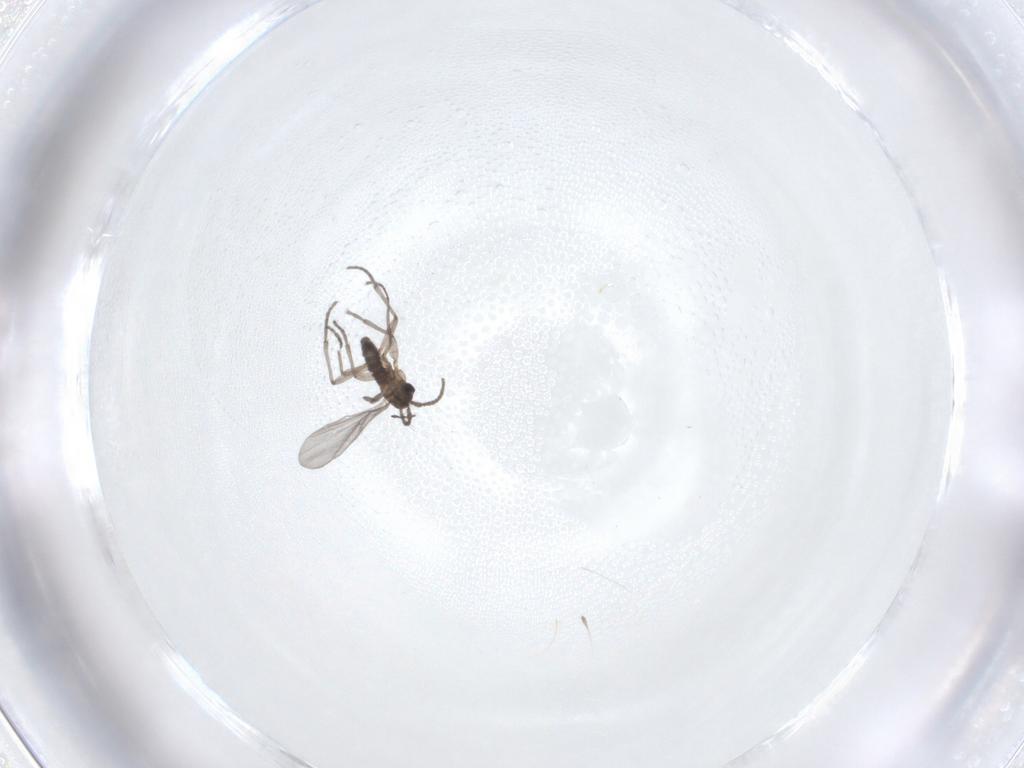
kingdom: Animalia
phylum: Arthropoda
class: Insecta
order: Diptera
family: Sciaridae
